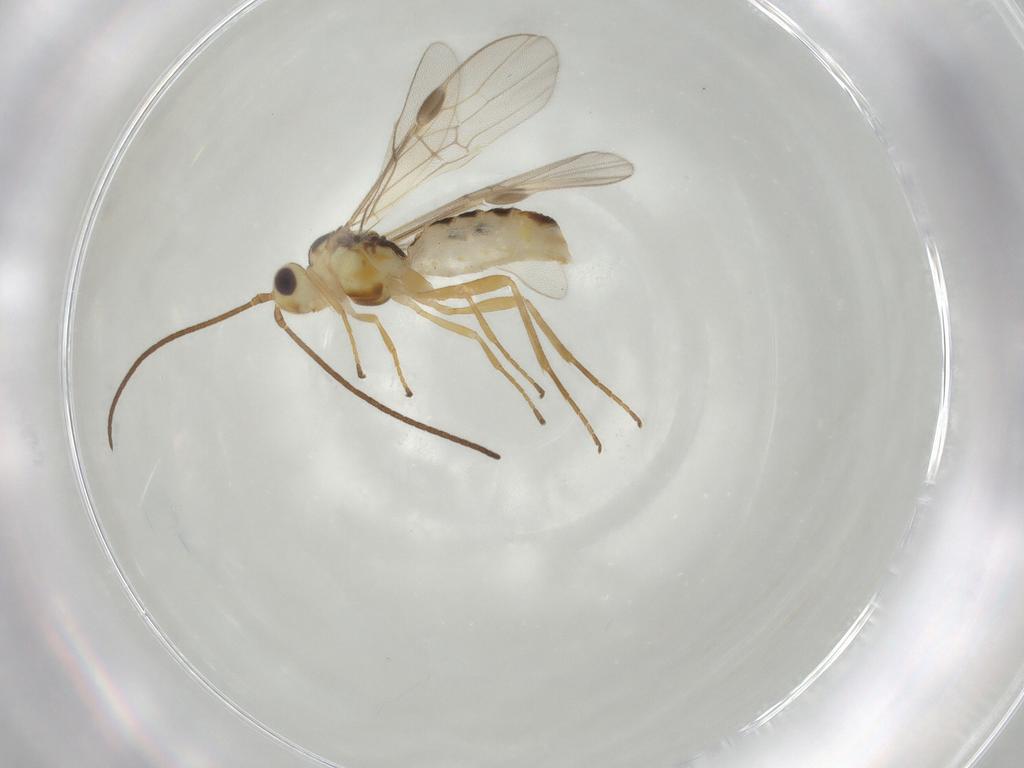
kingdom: Animalia
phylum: Arthropoda
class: Insecta
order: Hymenoptera
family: Braconidae
